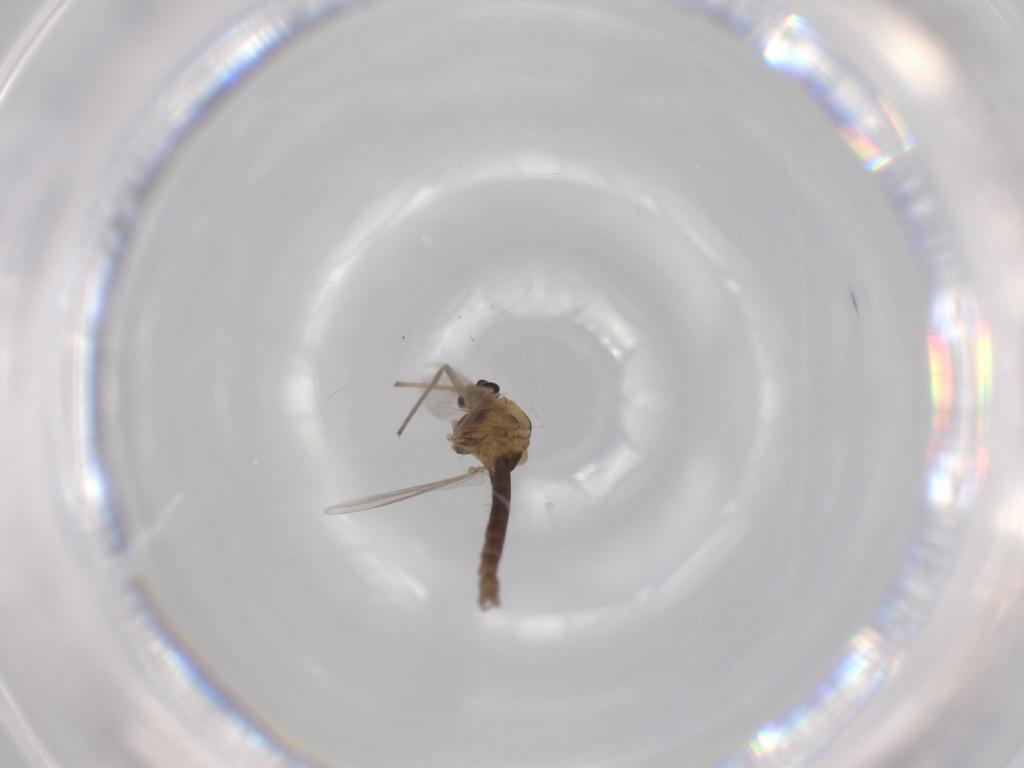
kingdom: Animalia
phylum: Arthropoda
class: Insecta
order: Diptera
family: Chironomidae
